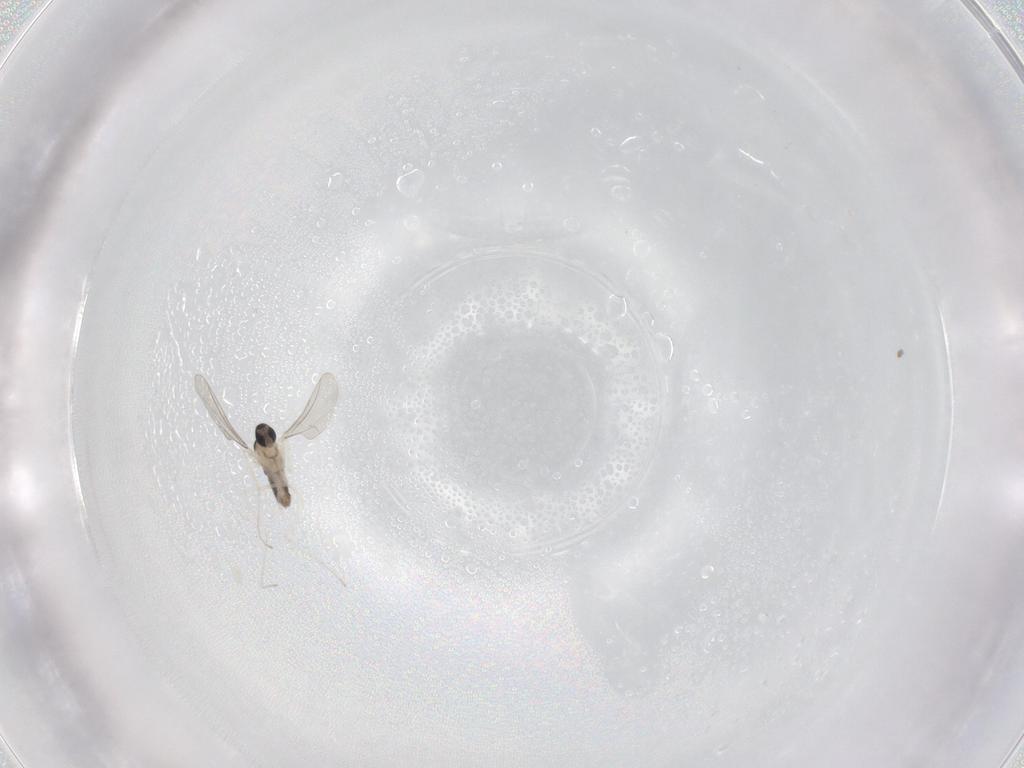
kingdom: Animalia
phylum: Arthropoda
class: Insecta
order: Diptera
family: Cecidomyiidae
